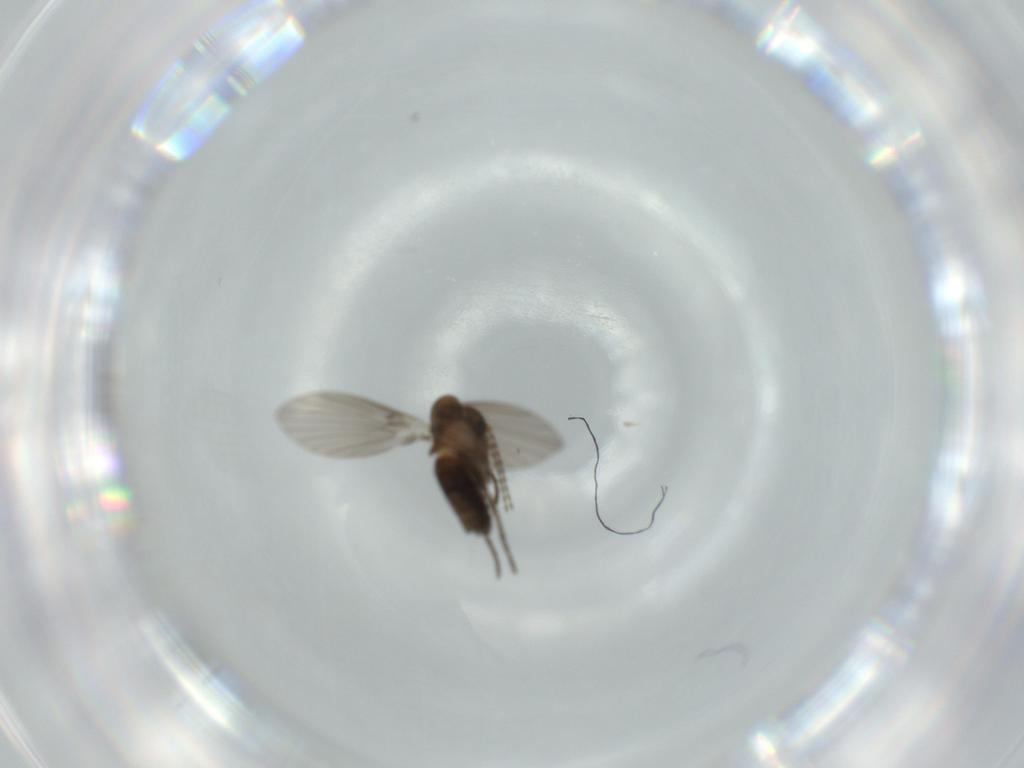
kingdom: Animalia
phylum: Arthropoda
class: Insecta
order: Diptera
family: Psychodidae
